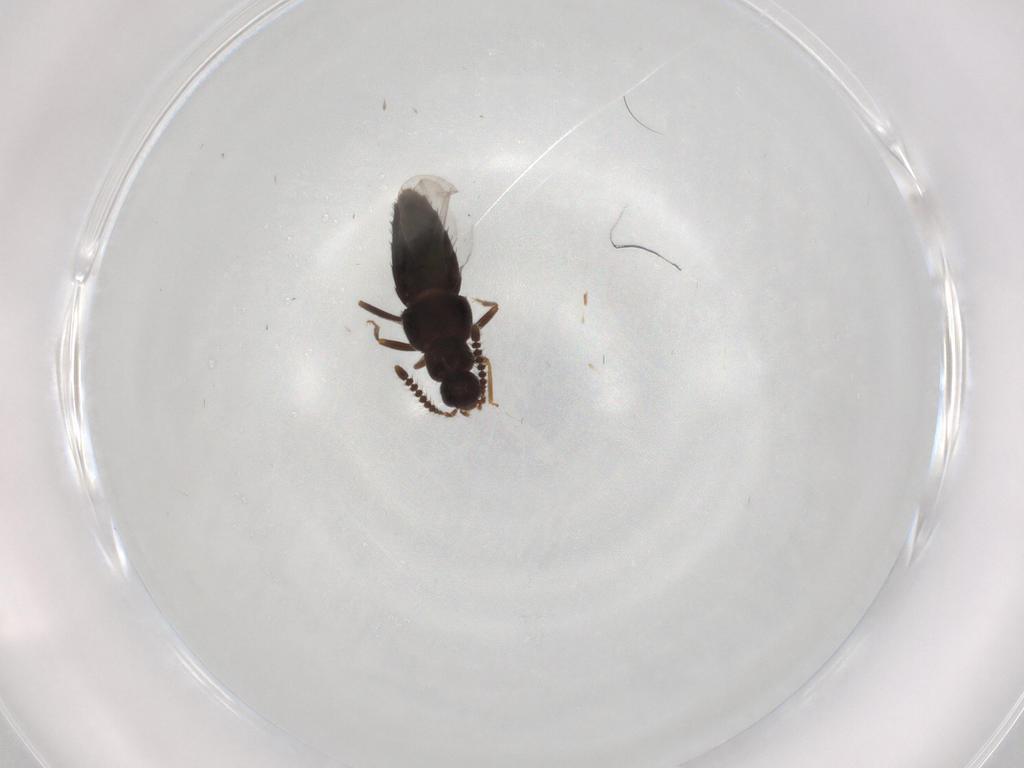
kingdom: Animalia
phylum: Arthropoda
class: Insecta
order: Coleoptera
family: Staphylinidae
